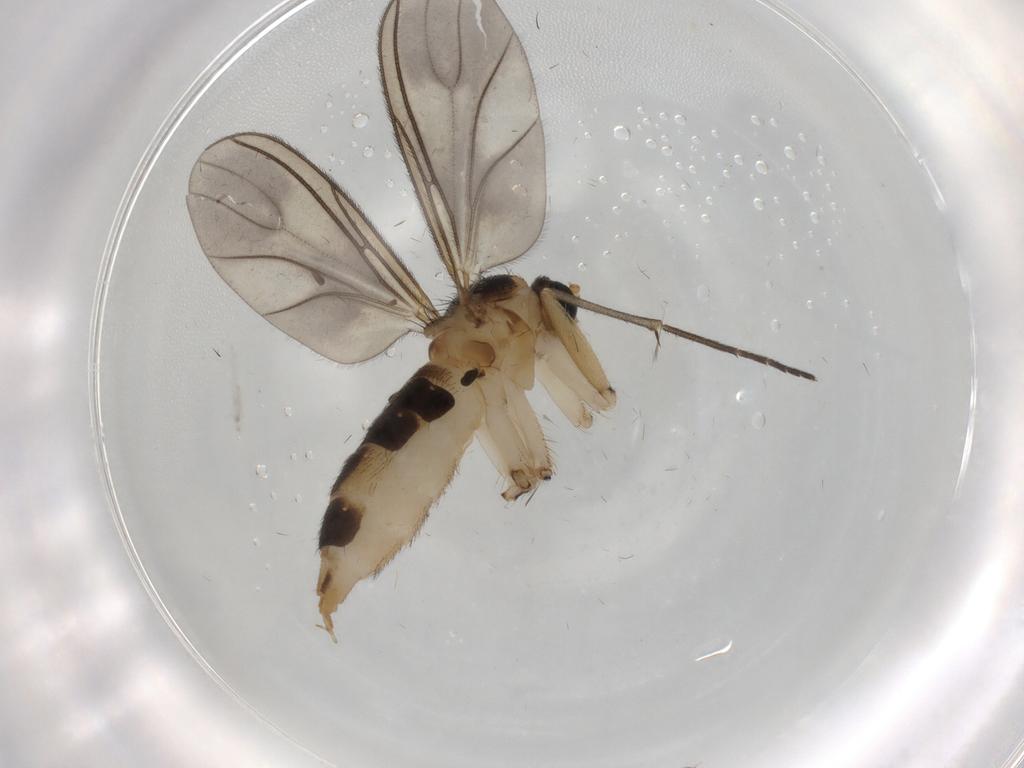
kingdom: Animalia
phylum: Arthropoda
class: Insecta
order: Diptera
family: Sciaridae
